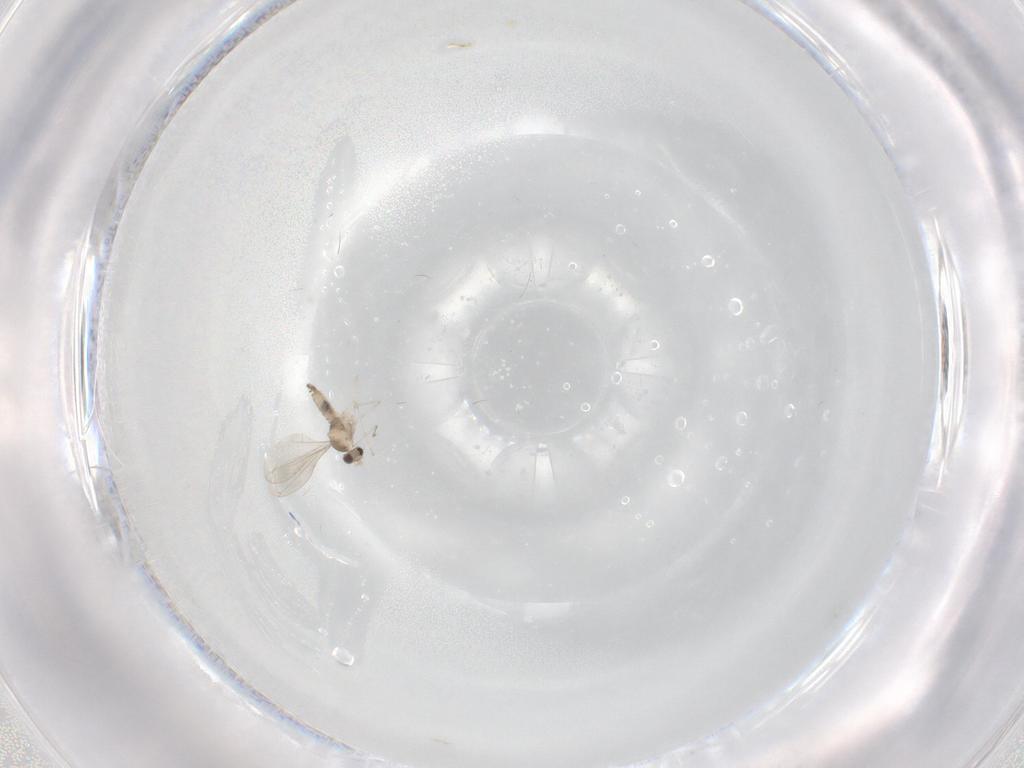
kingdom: Animalia
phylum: Arthropoda
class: Insecta
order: Diptera
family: Cecidomyiidae
